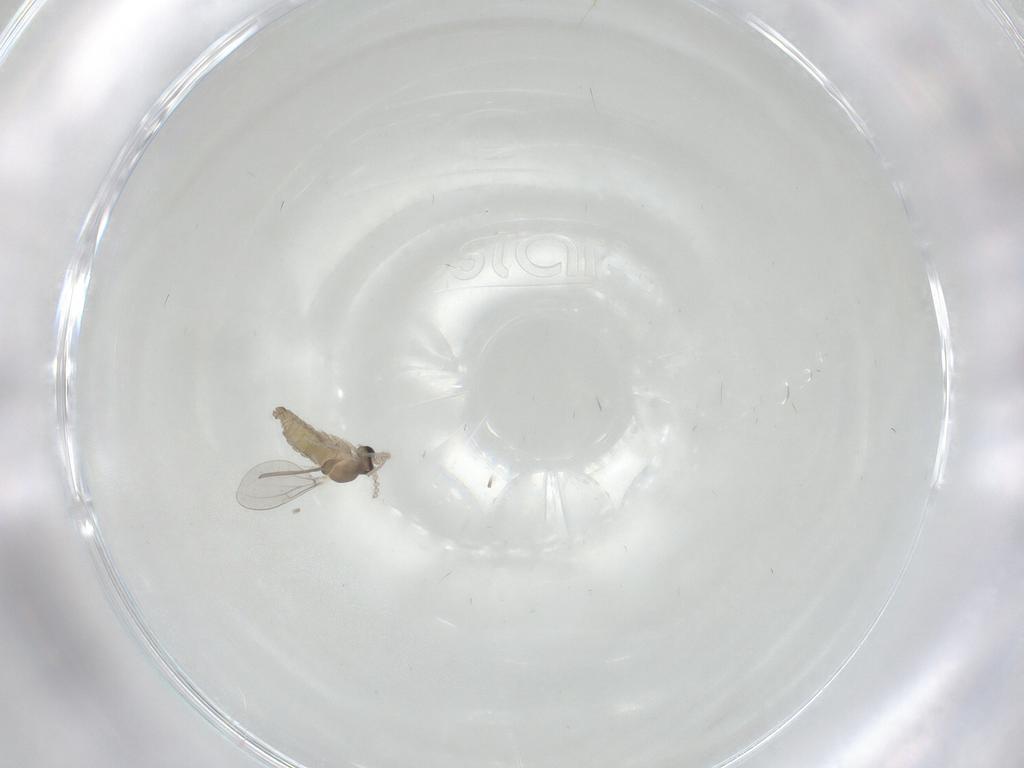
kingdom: Animalia
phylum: Arthropoda
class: Insecta
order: Diptera
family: Cecidomyiidae
